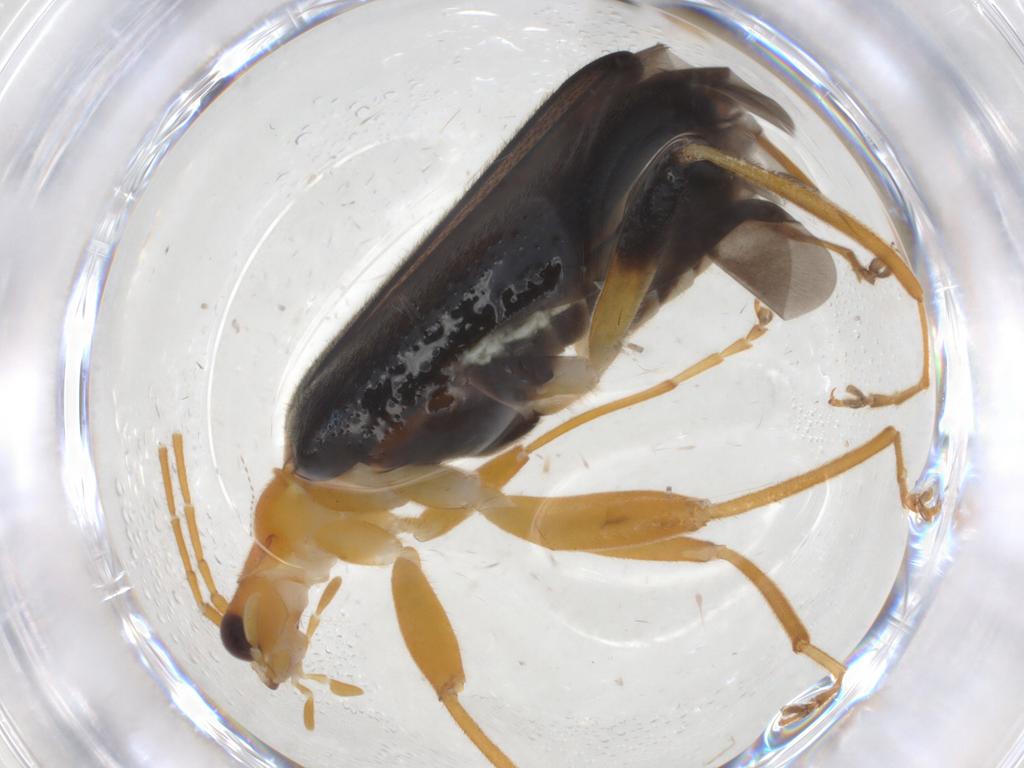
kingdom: Animalia
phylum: Arthropoda
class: Insecta
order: Coleoptera
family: Cantharidae
